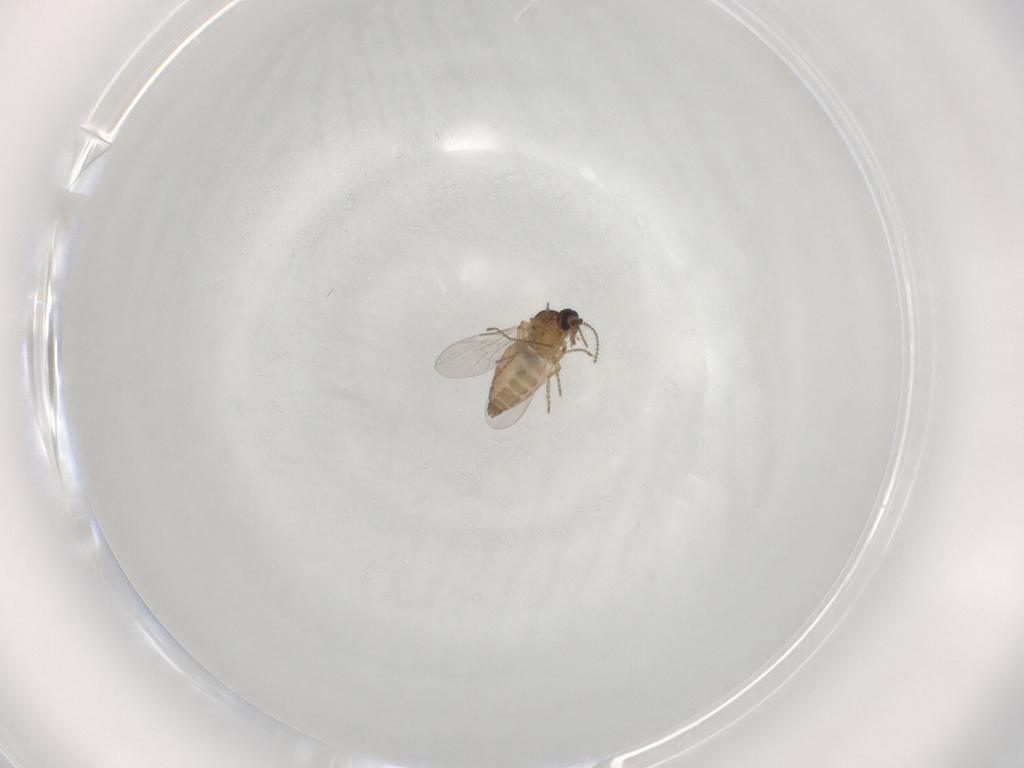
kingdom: Animalia
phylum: Arthropoda
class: Insecta
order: Diptera
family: Ceratopogonidae
